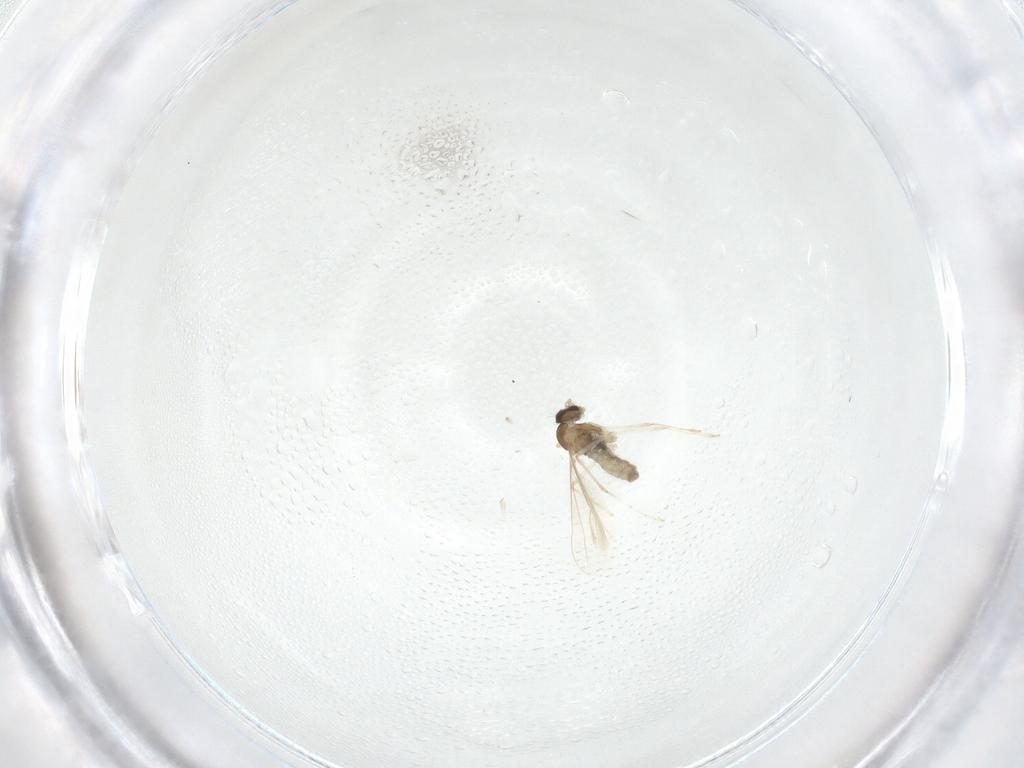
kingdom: Animalia
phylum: Arthropoda
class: Insecta
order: Diptera
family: Cecidomyiidae
